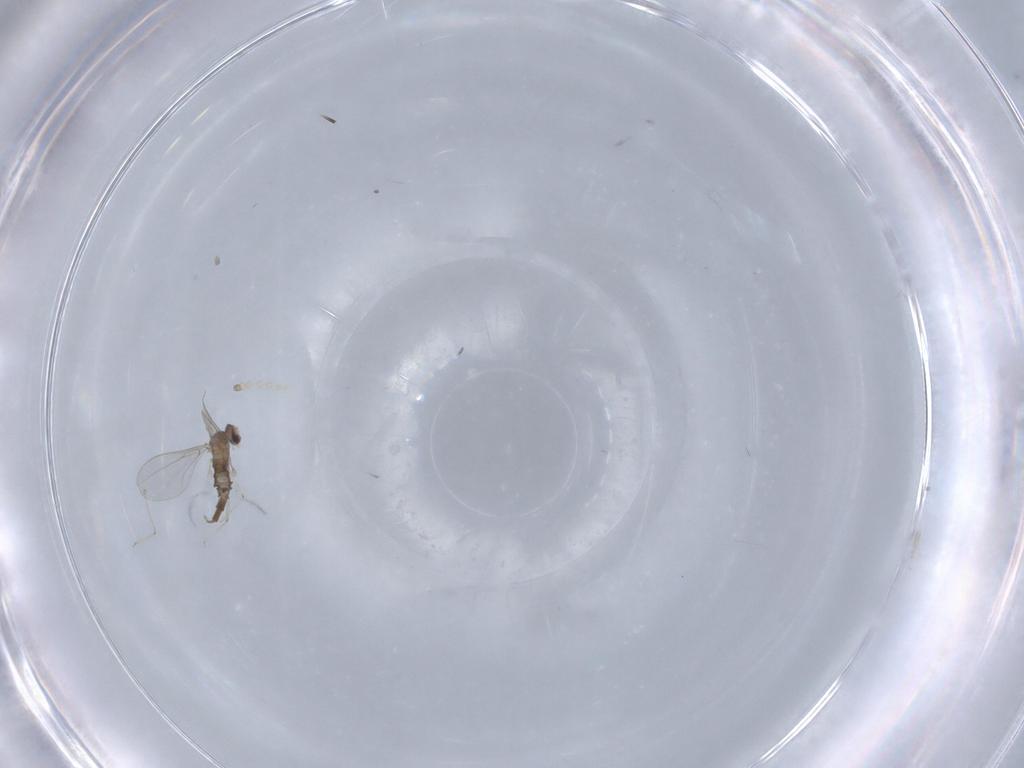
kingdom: Animalia
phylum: Arthropoda
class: Insecta
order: Diptera
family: Cecidomyiidae
